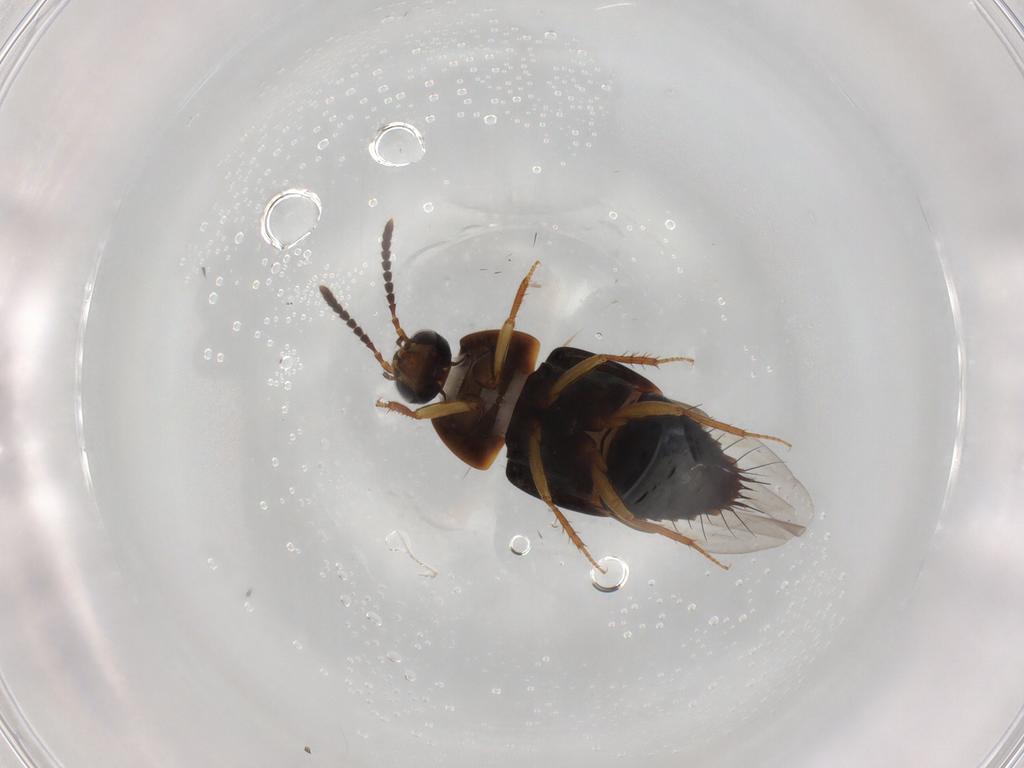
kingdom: Animalia
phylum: Arthropoda
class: Insecta
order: Coleoptera
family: Staphylinidae
